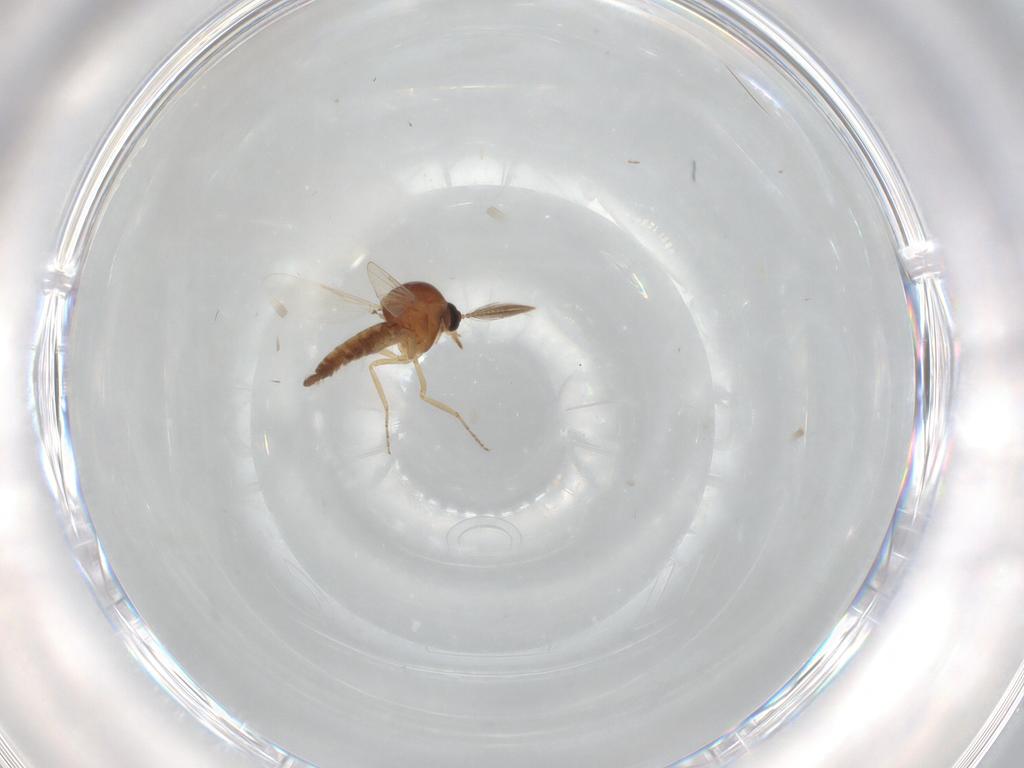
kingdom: Animalia
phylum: Arthropoda
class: Insecta
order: Diptera
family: Ceratopogonidae
